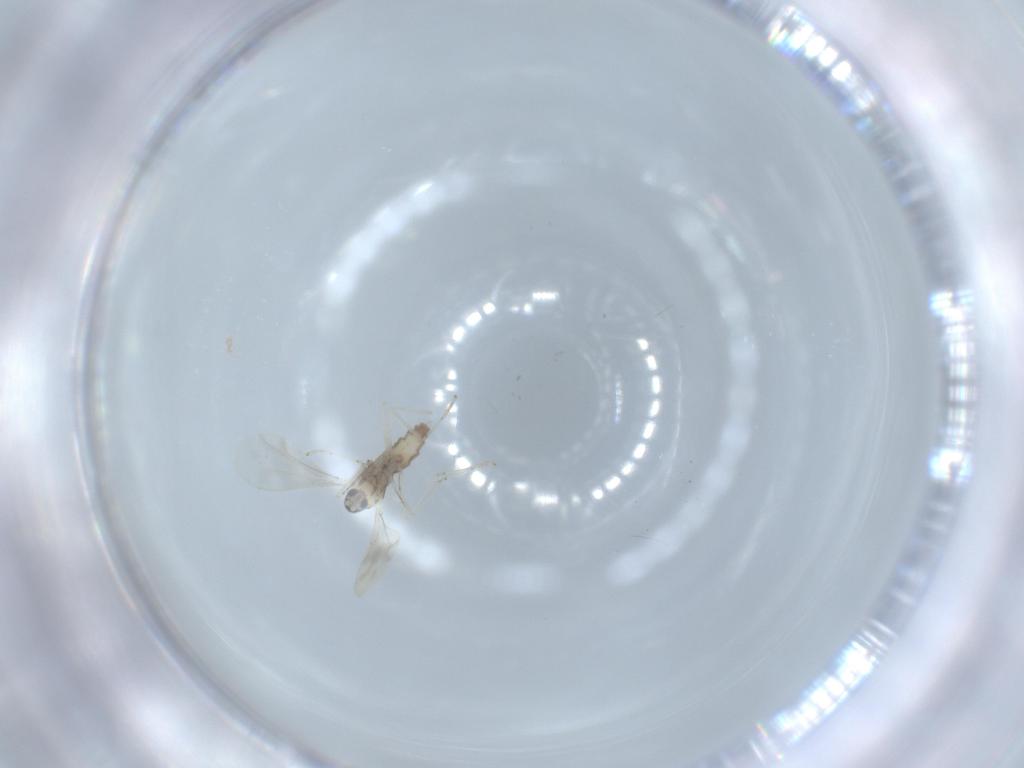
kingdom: Animalia
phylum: Arthropoda
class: Insecta
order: Diptera
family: Cecidomyiidae
